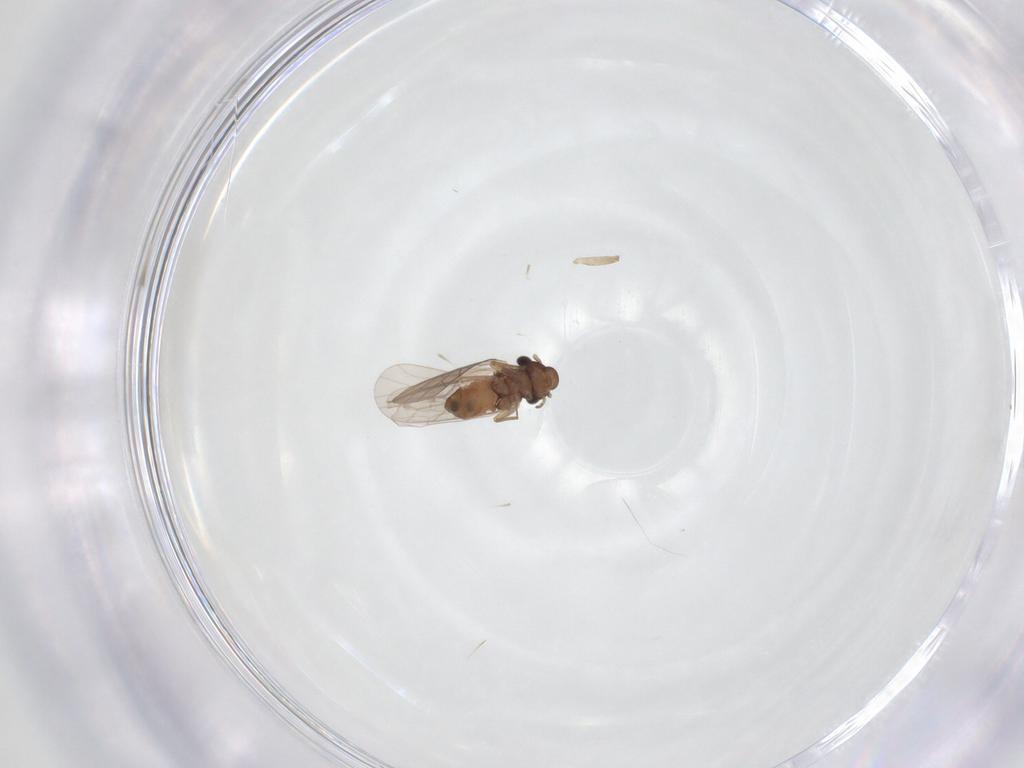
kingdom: Animalia
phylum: Arthropoda
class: Insecta
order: Psocodea
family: Lepidopsocidae
